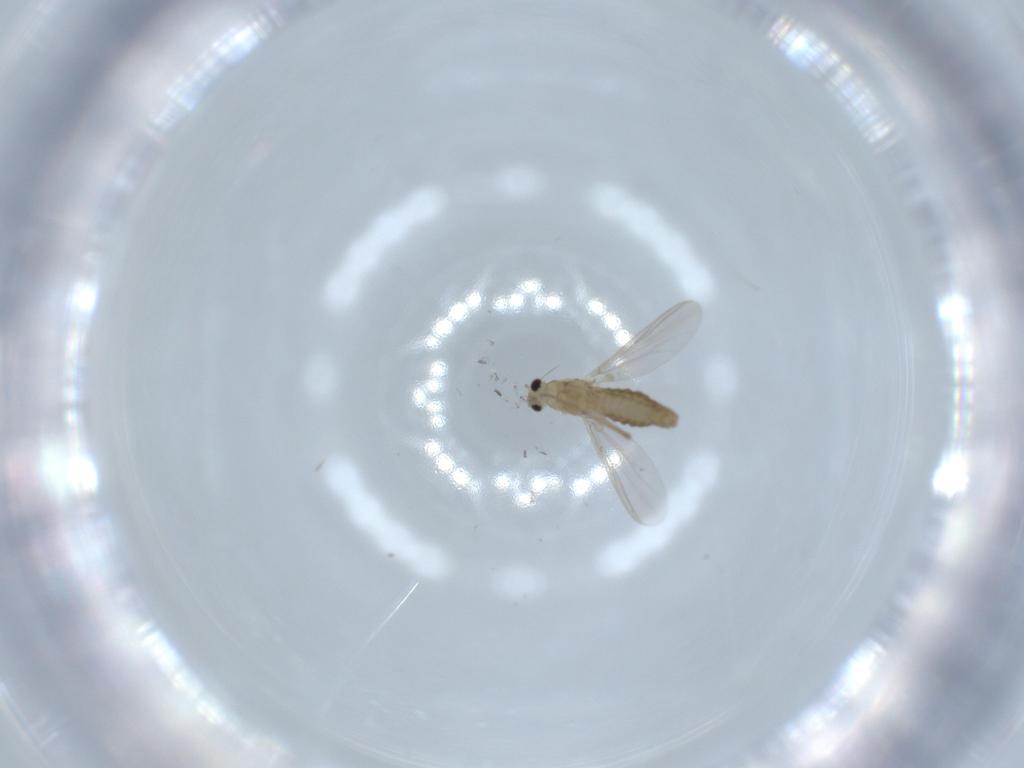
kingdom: Animalia
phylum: Arthropoda
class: Insecta
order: Diptera
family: Chironomidae
